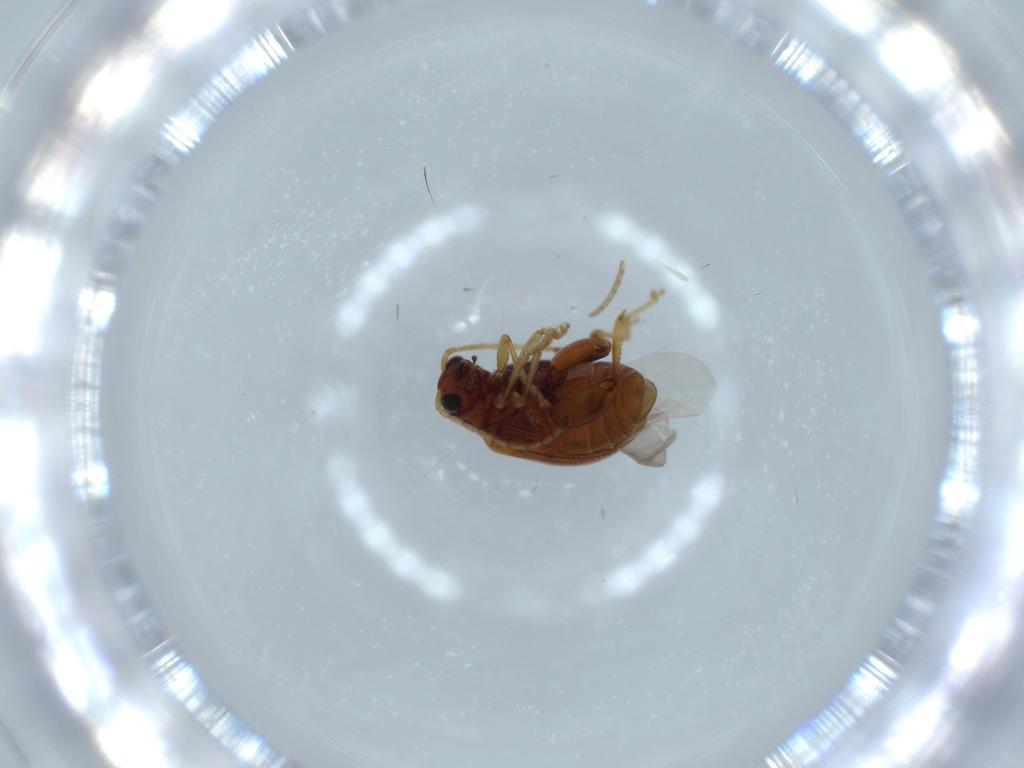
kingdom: Animalia
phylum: Arthropoda
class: Insecta
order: Coleoptera
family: Chrysomelidae
